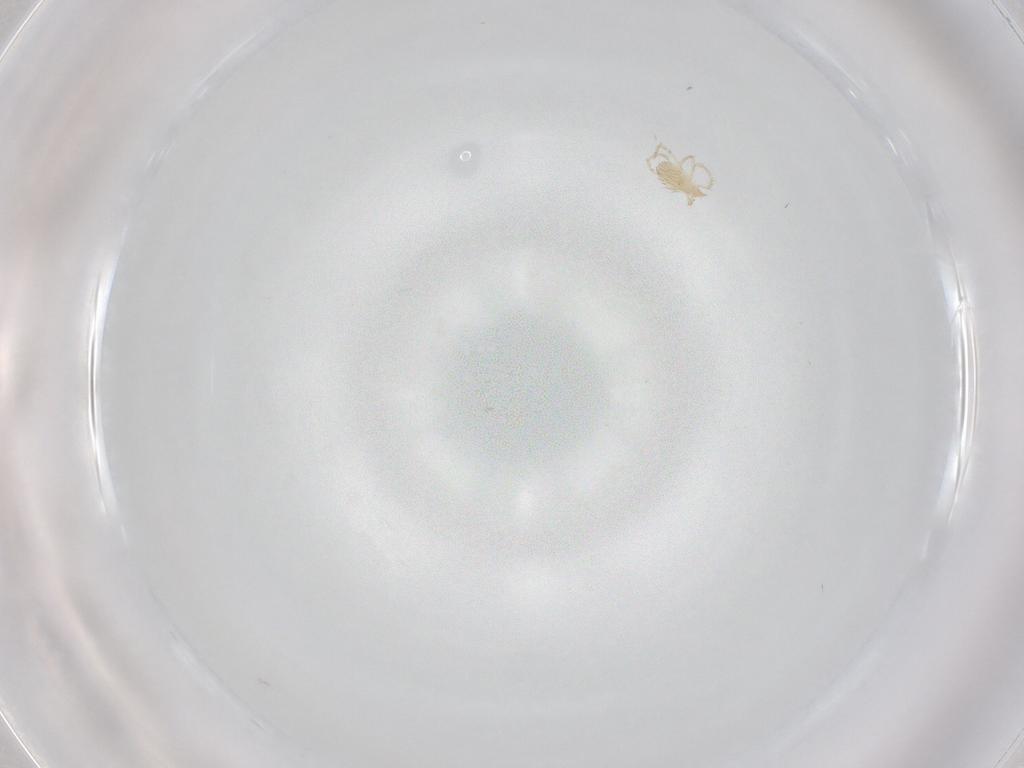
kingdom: Animalia
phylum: Arthropoda
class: Arachnida
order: Trombidiformes
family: Erythraeidae
